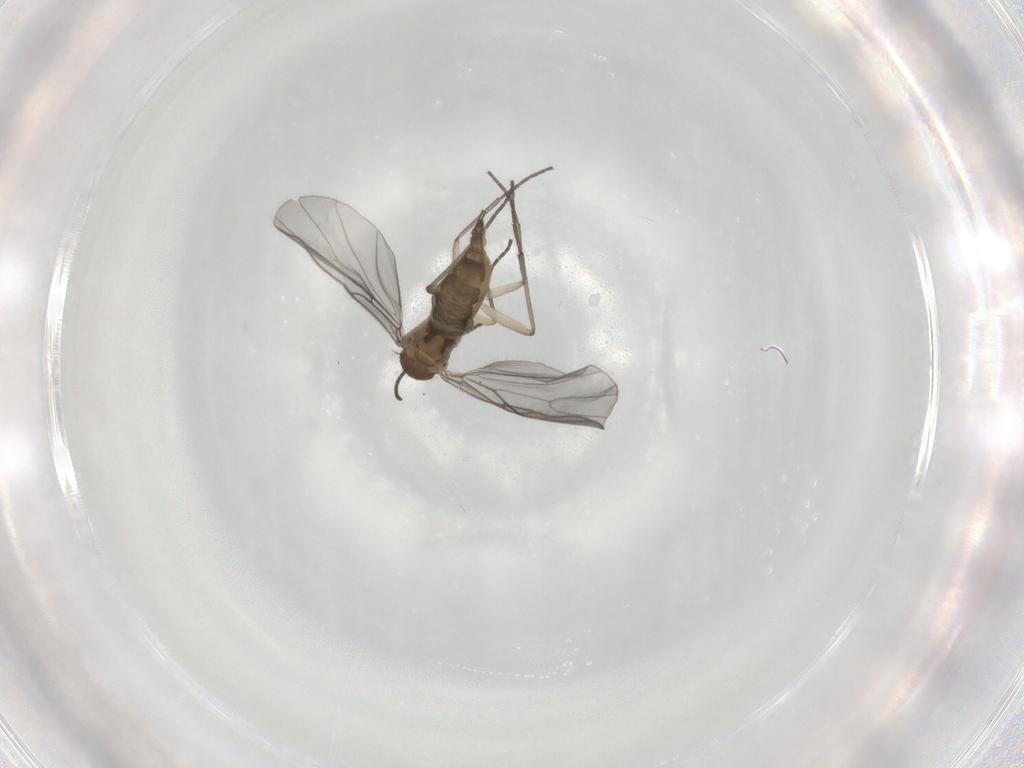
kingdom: Animalia
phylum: Arthropoda
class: Insecta
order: Diptera
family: Sciaridae
